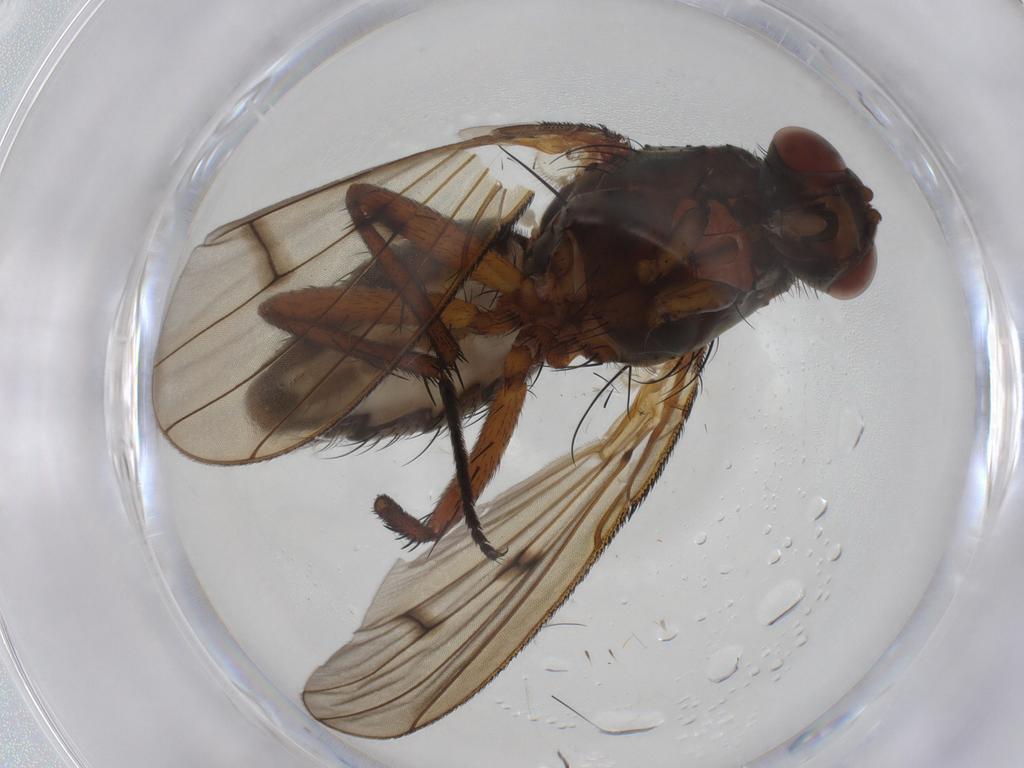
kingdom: Animalia
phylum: Arthropoda
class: Insecta
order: Diptera
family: Anthomyiidae
